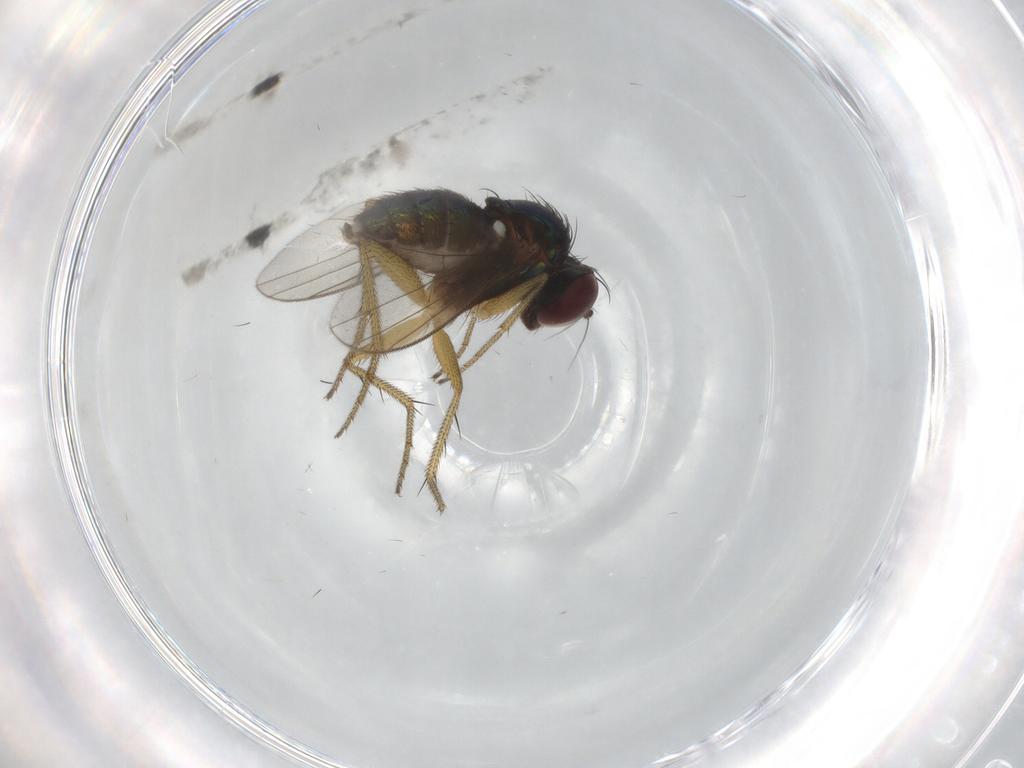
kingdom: Animalia
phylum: Arthropoda
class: Insecta
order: Diptera
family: Dolichopodidae
